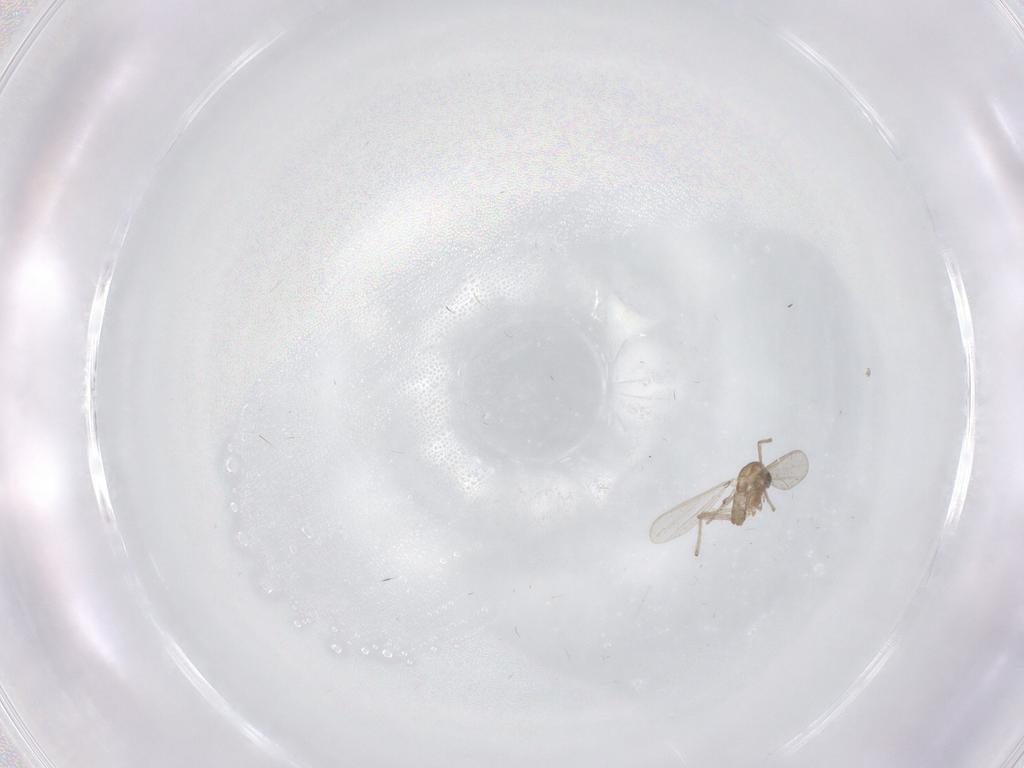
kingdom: Animalia
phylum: Arthropoda
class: Insecta
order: Diptera
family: Chironomidae
